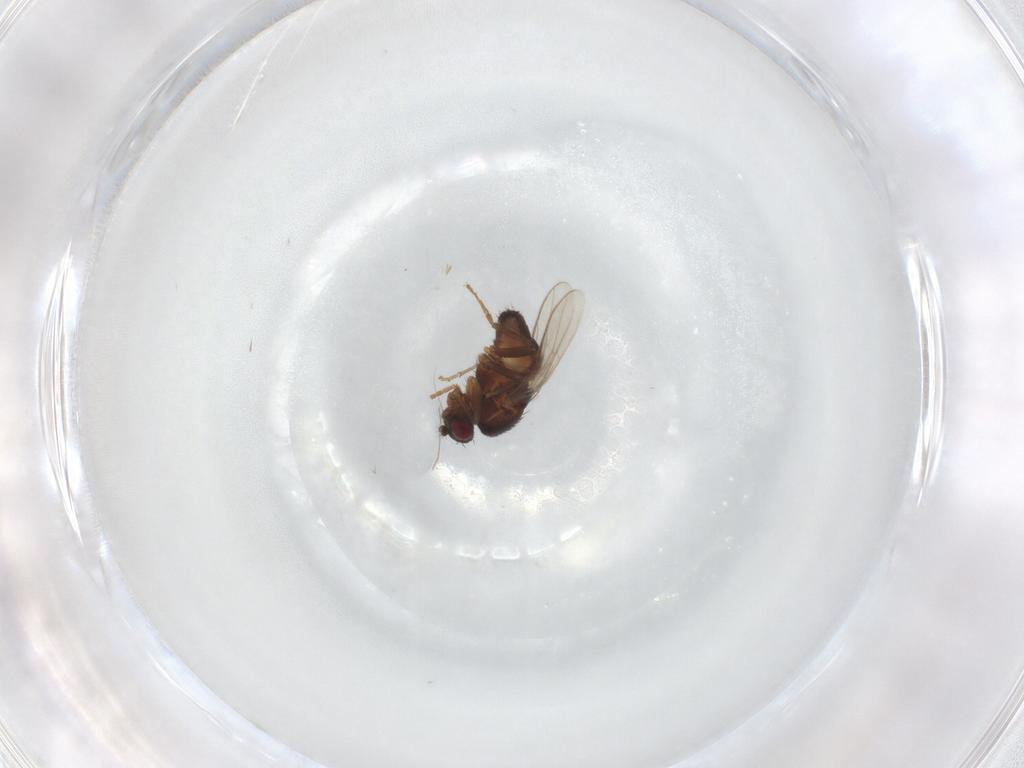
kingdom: Animalia
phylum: Arthropoda
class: Insecta
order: Diptera
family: Sphaeroceridae
